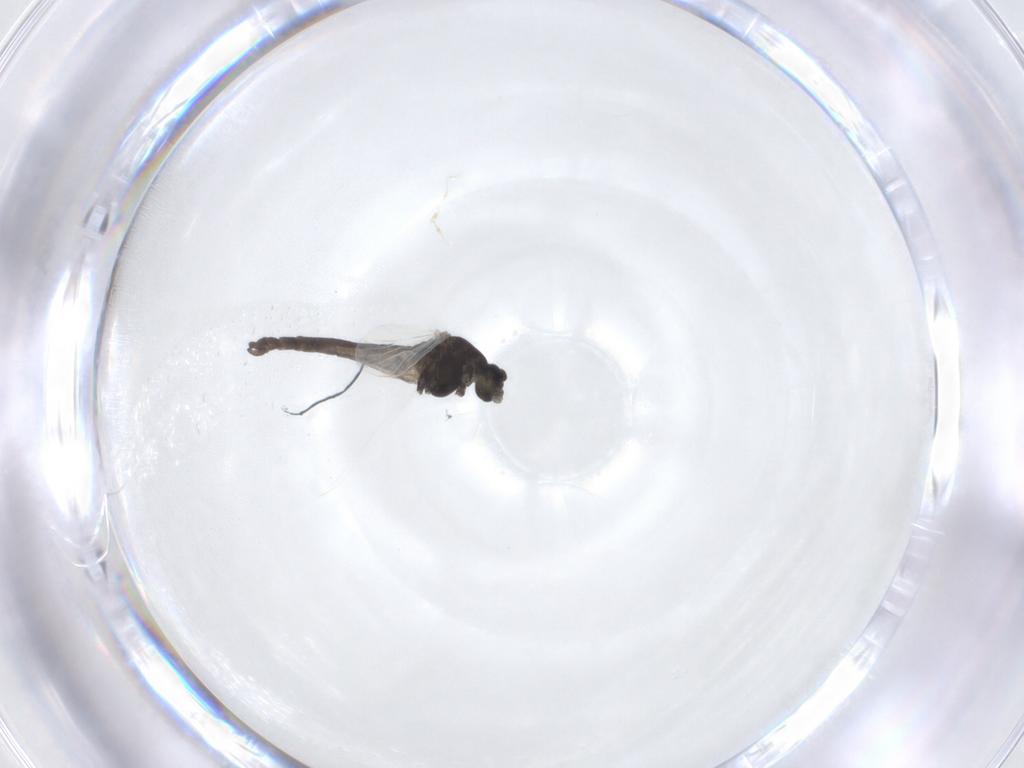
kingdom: Animalia
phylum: Arthropoda
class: Insecta
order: Diptera
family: Chironomidae
